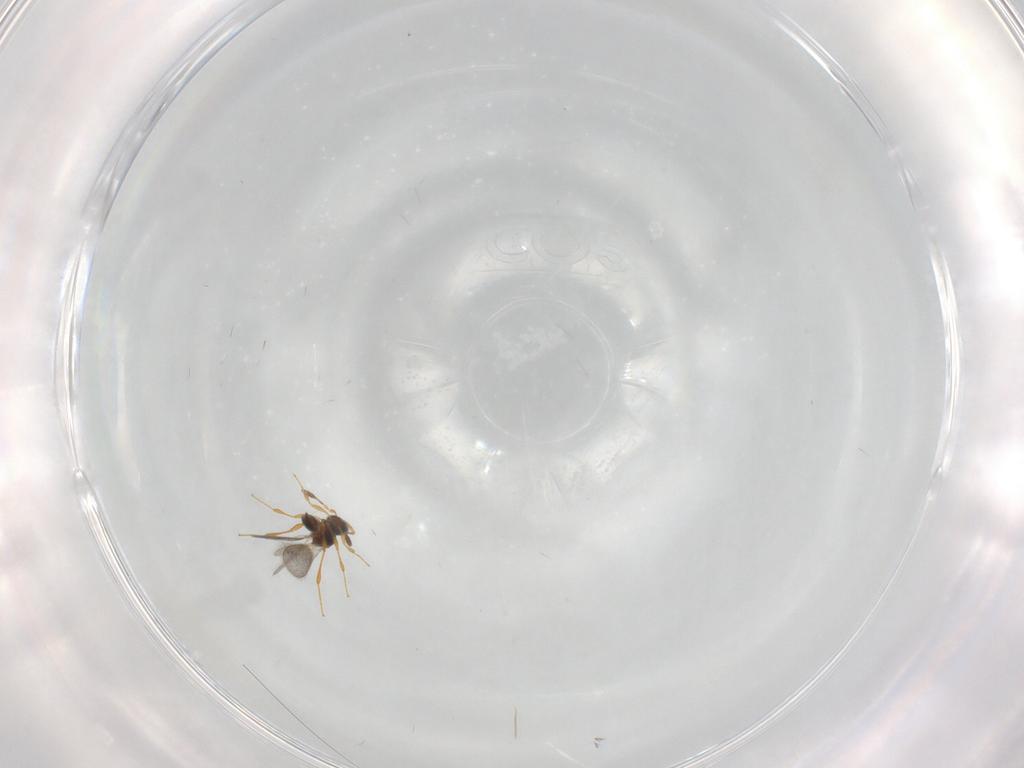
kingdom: Animalia
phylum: Arthropoda
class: Insecta
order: Hymenoptera
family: Platygastridae
